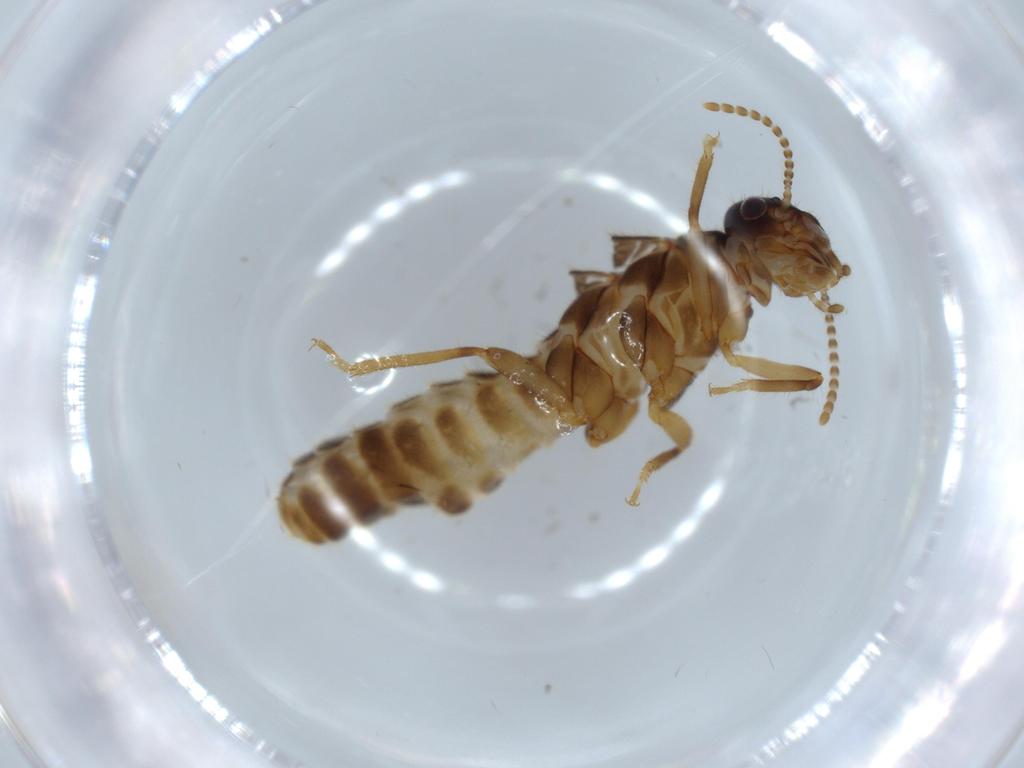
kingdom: Animalia
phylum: Arthropoda
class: Insecta
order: Blattodea
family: Termitidae
